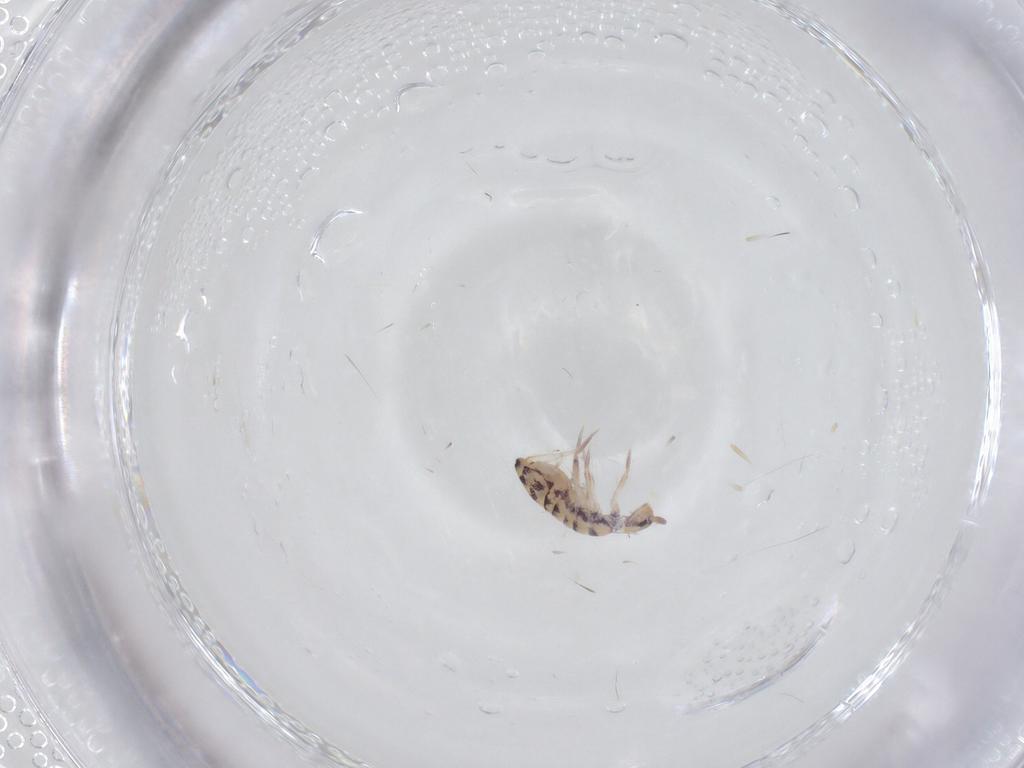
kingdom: Animalia
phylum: Arthropoda
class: Collembola
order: Entomobryomorpha
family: Entomobryidae
